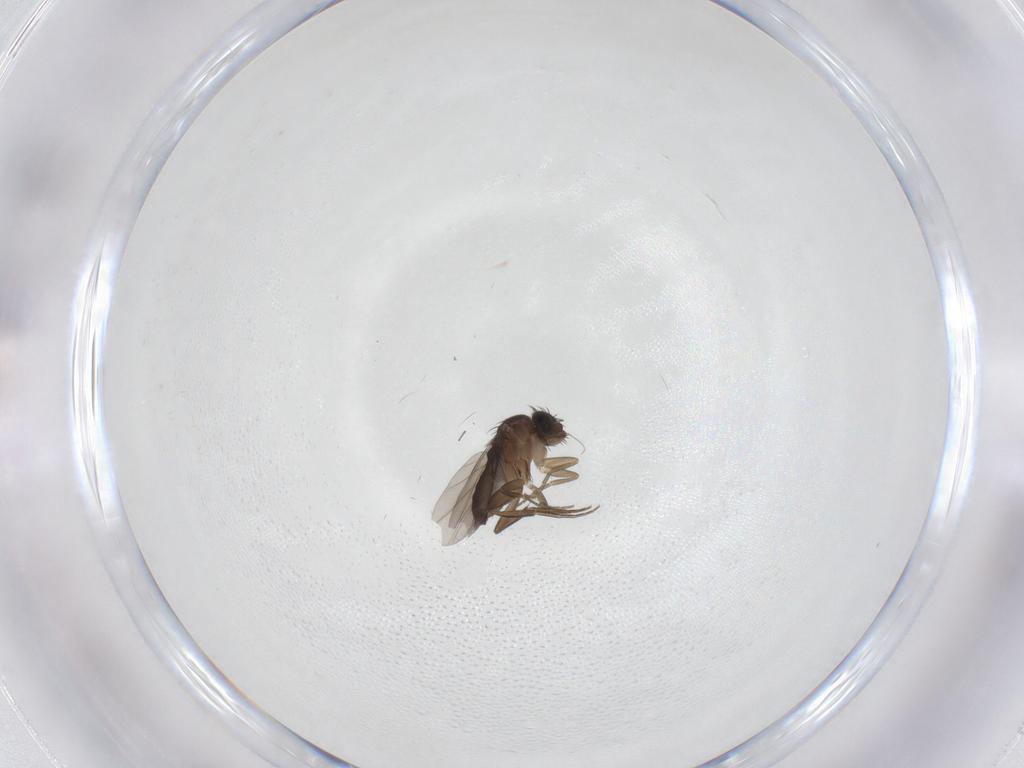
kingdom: Animalia
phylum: Arthropoda
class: Insecta
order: Diptera
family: Phoridae
